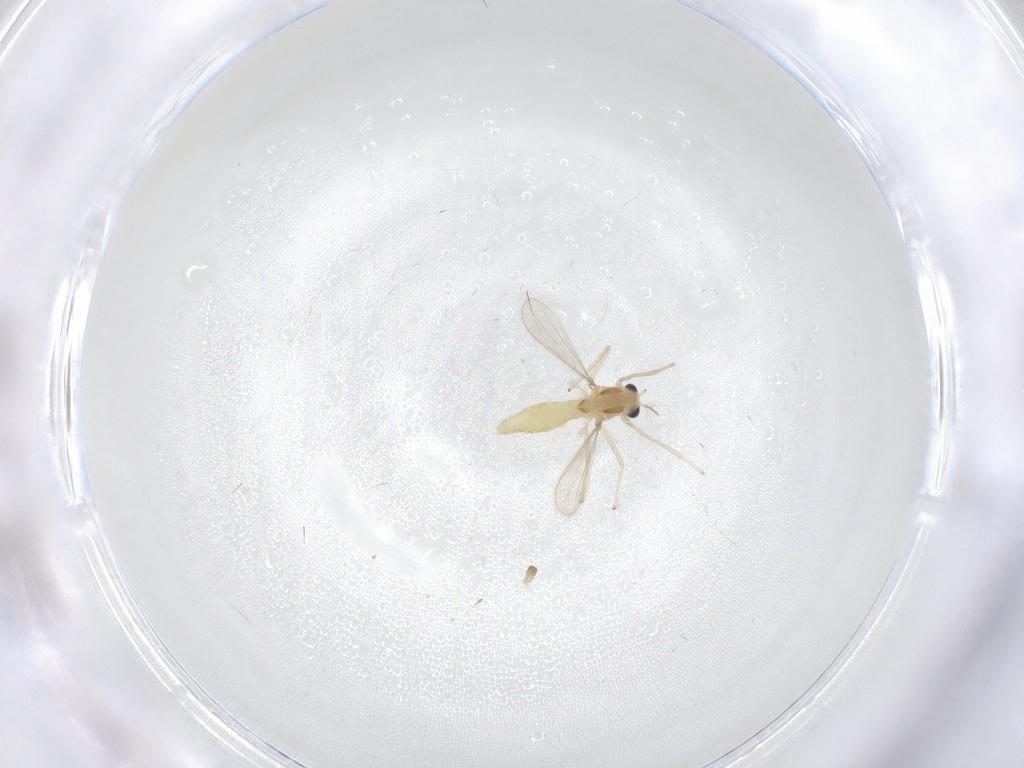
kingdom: Animalia
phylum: Arthropoda
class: Insecta
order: Diptera
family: Chironomidae
